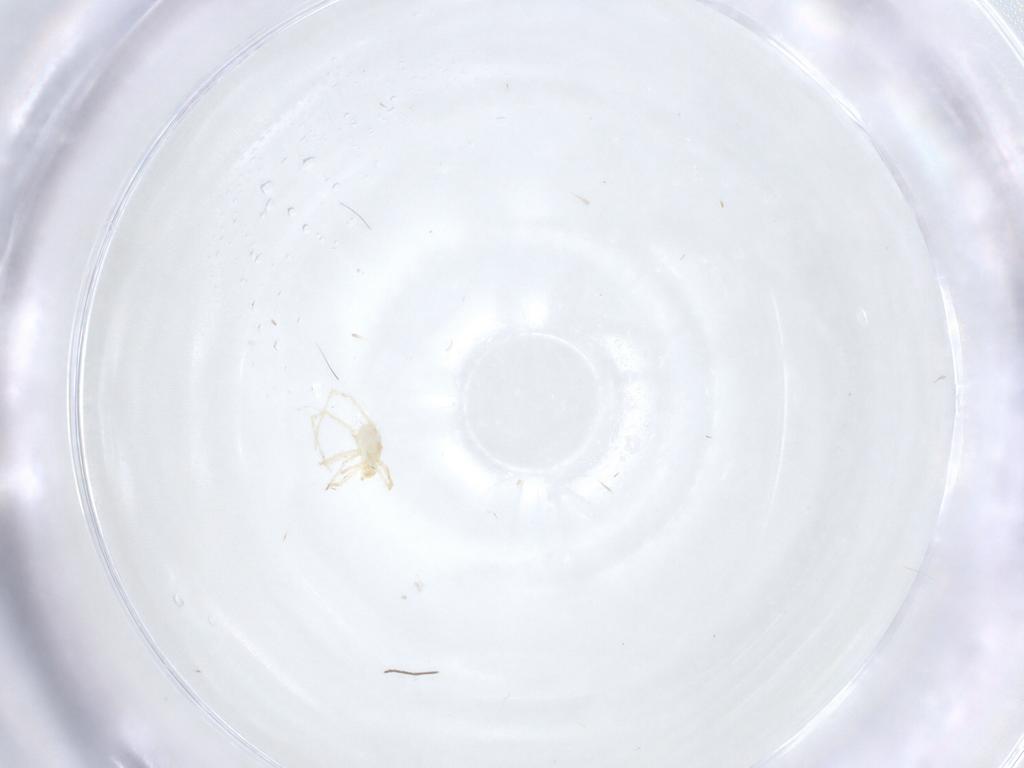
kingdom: Animalia
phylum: Arthropoda
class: Arachnida
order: Trombidiformes
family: Erythraeidae
